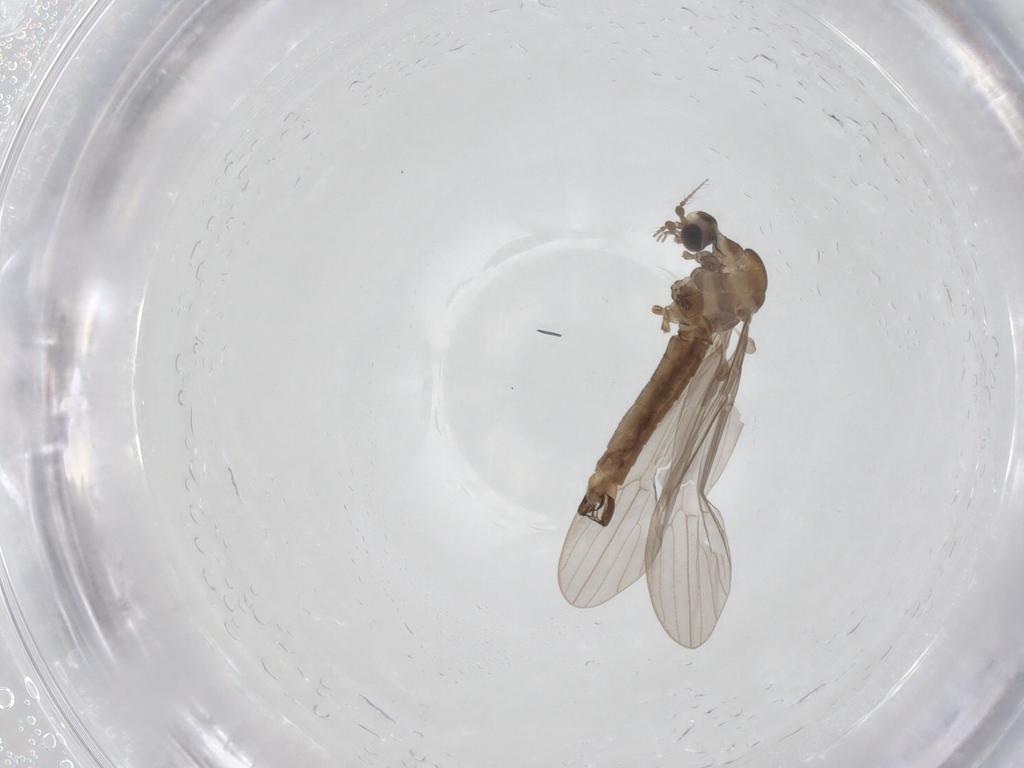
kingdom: Animalia
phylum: Arthropoda
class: Insecta
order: Diptera
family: Limoniidae
